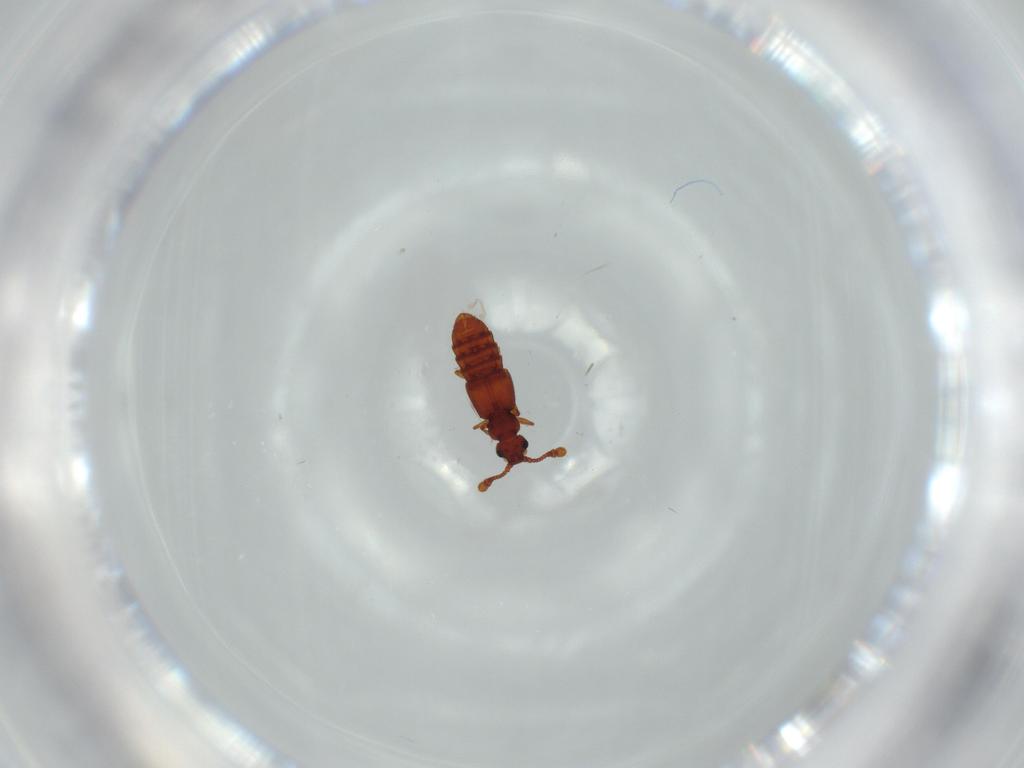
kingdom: Animalia
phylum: Arthropoda
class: Insecta
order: Coleoptera
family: Staphylinidae
